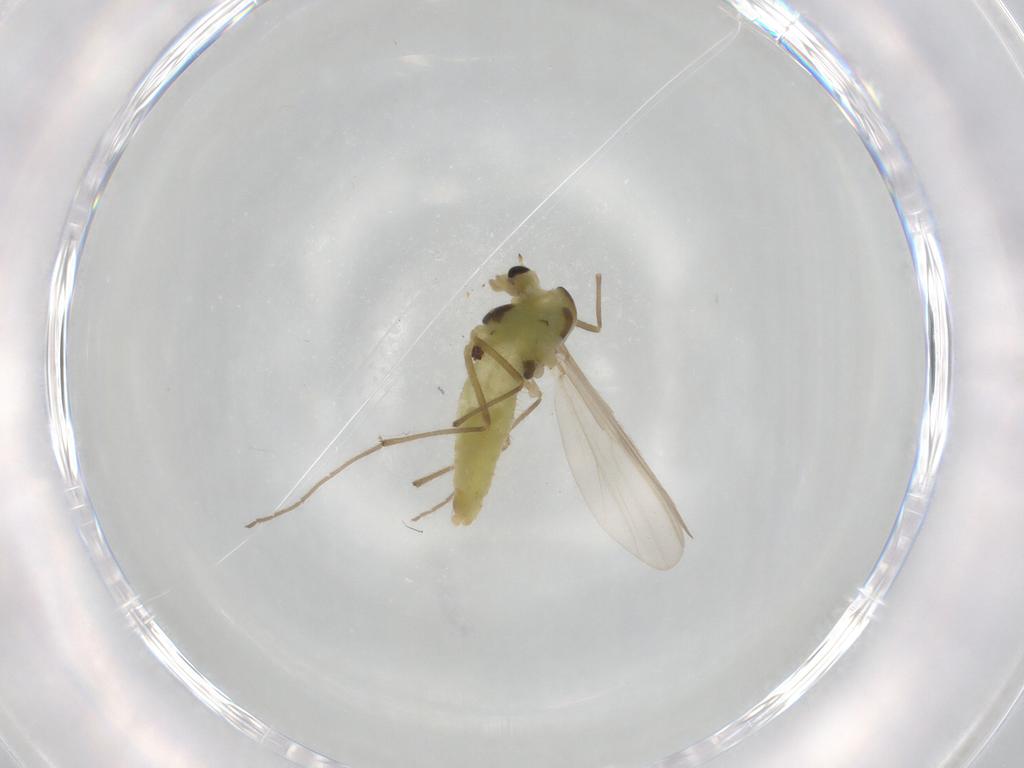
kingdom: Animalia
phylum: Arthropoda
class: Insecta
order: Diptera
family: Chironomidae
